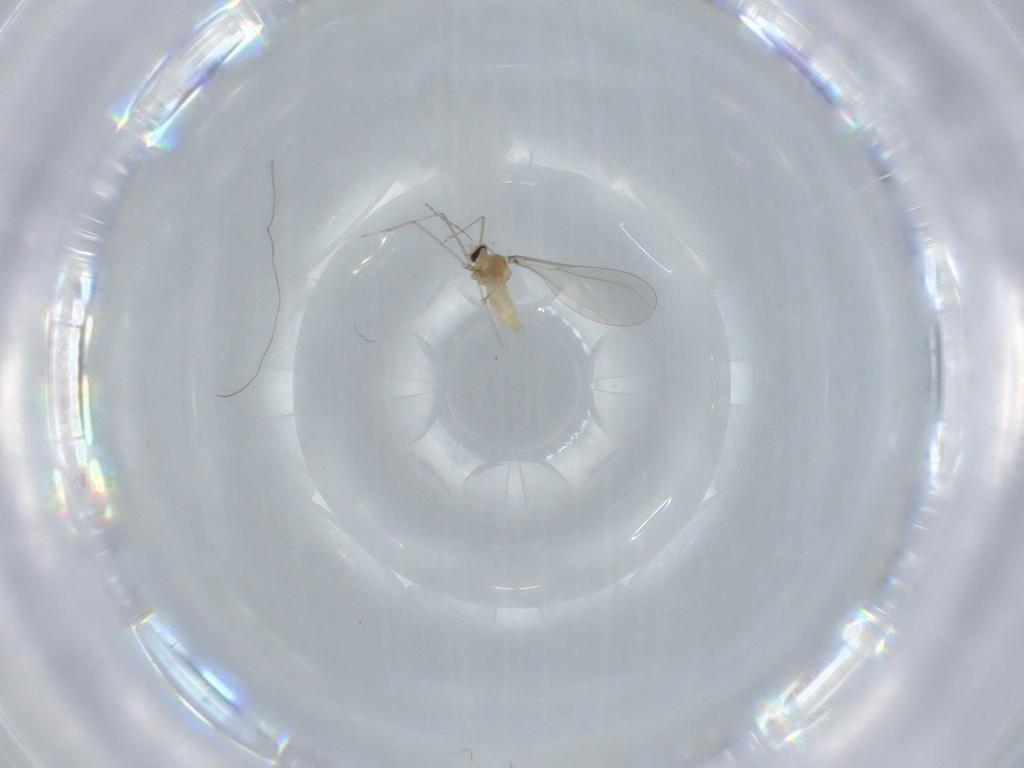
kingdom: Animalia
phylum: Arthropoda
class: Insecta
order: Diptera
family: Cecidomyiidae
